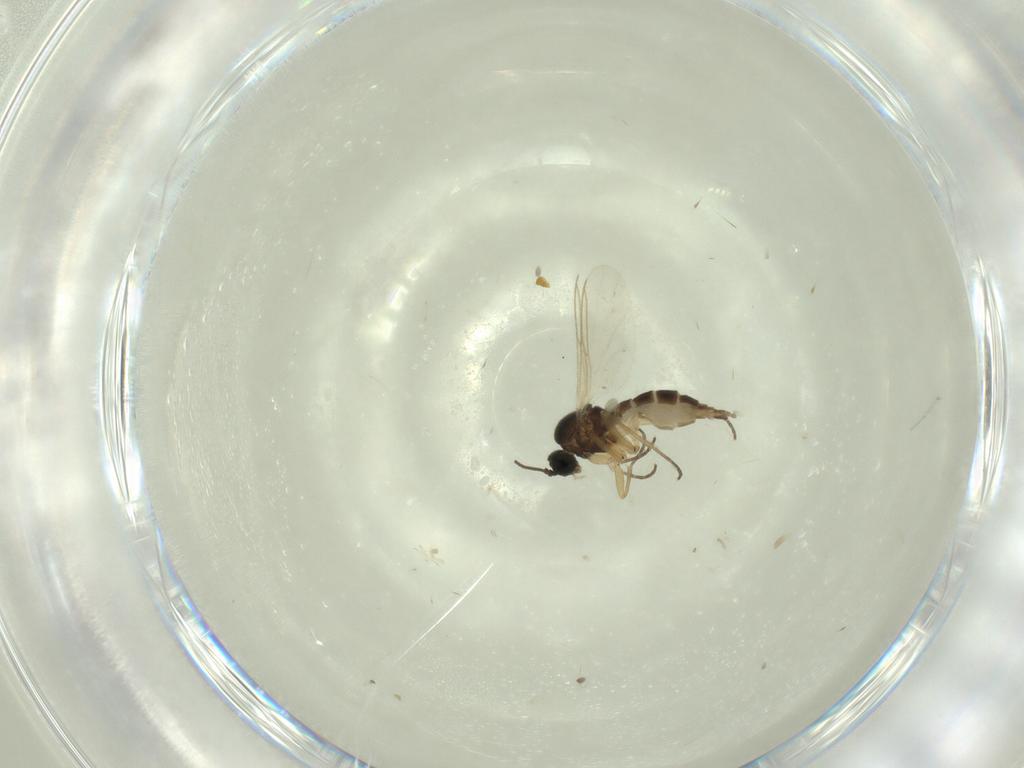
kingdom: Animalia
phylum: Arthropoda
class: Insecta
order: Diptera
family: Sciaridae
